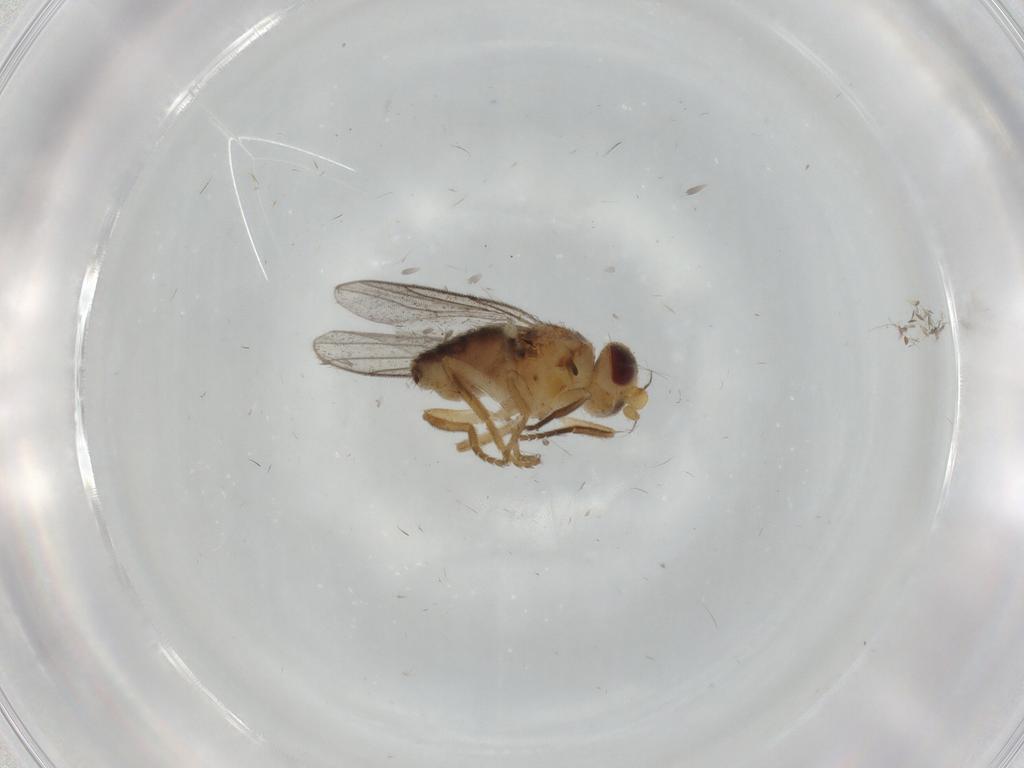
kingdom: Animalia
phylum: Arthropoda
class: Insecta
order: Diptera
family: Chloropidae
